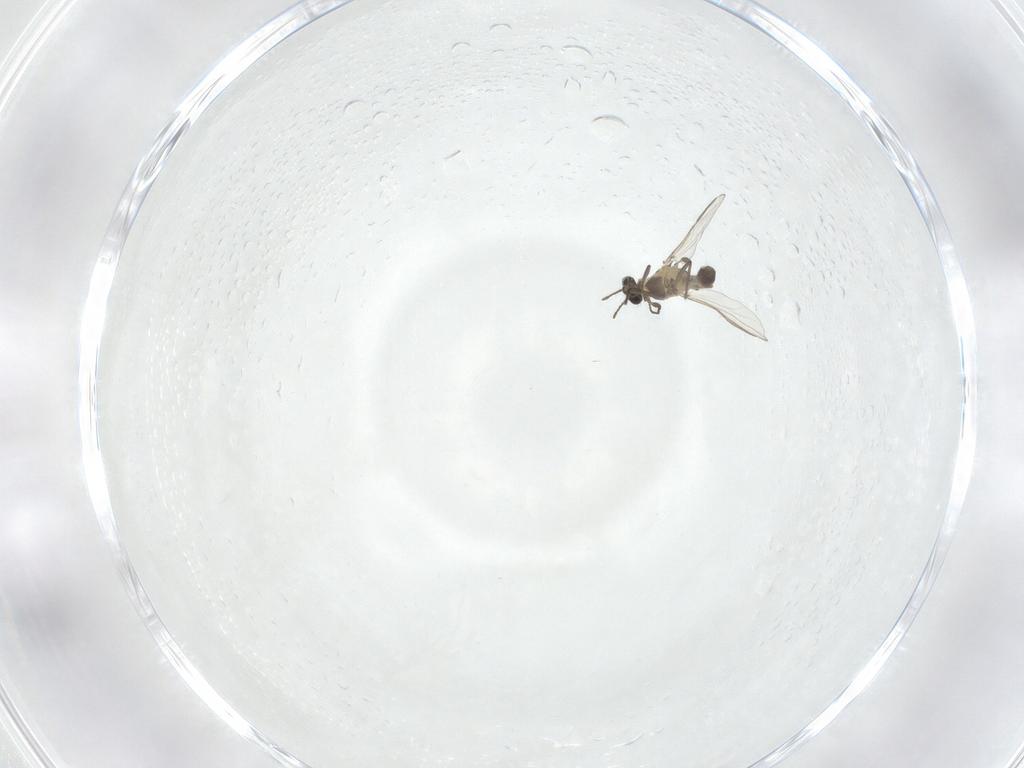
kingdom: Animalia
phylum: Arthropoda
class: Insecta
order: Diptera
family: Chironomidae
